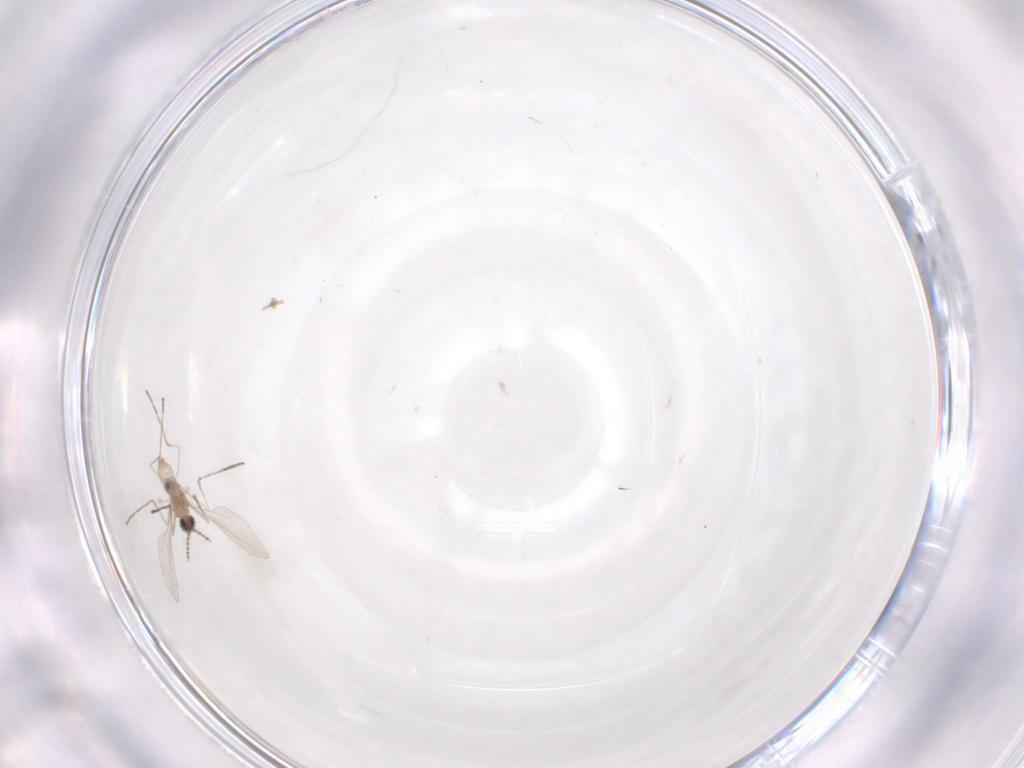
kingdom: Animalia
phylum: Arthropoda
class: Insecta
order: Diptera
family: Cecidomyiidae
